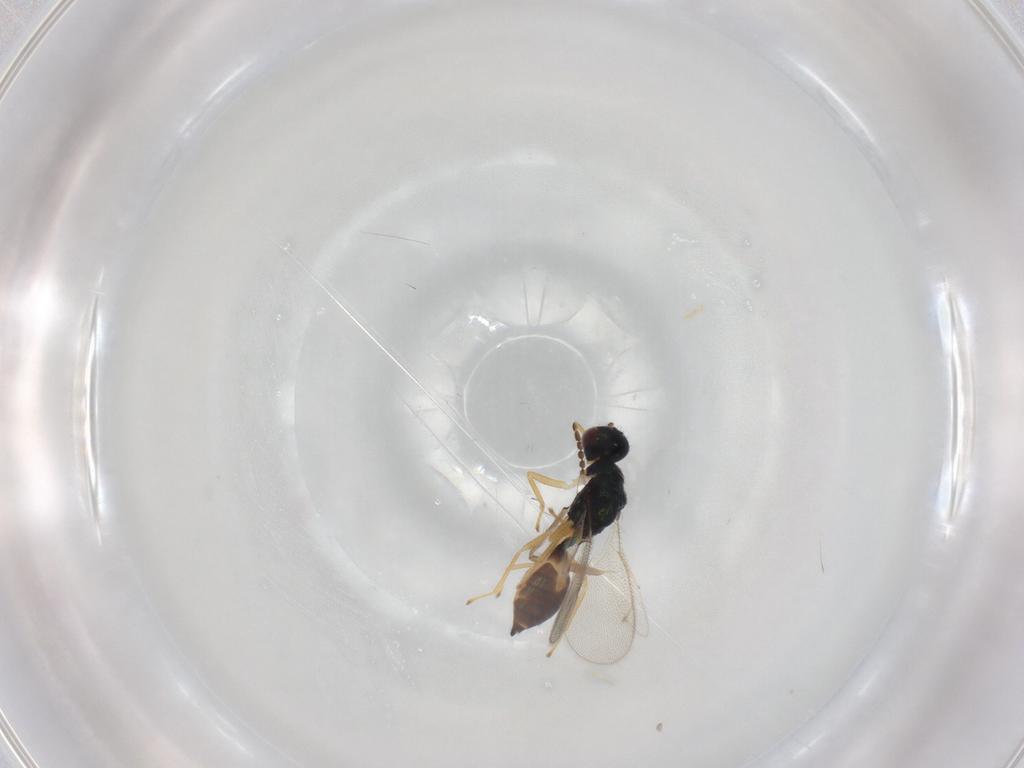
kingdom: Animalia
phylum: Arthropoda
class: Insecta
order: Hymenoptera
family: Eulophidae
